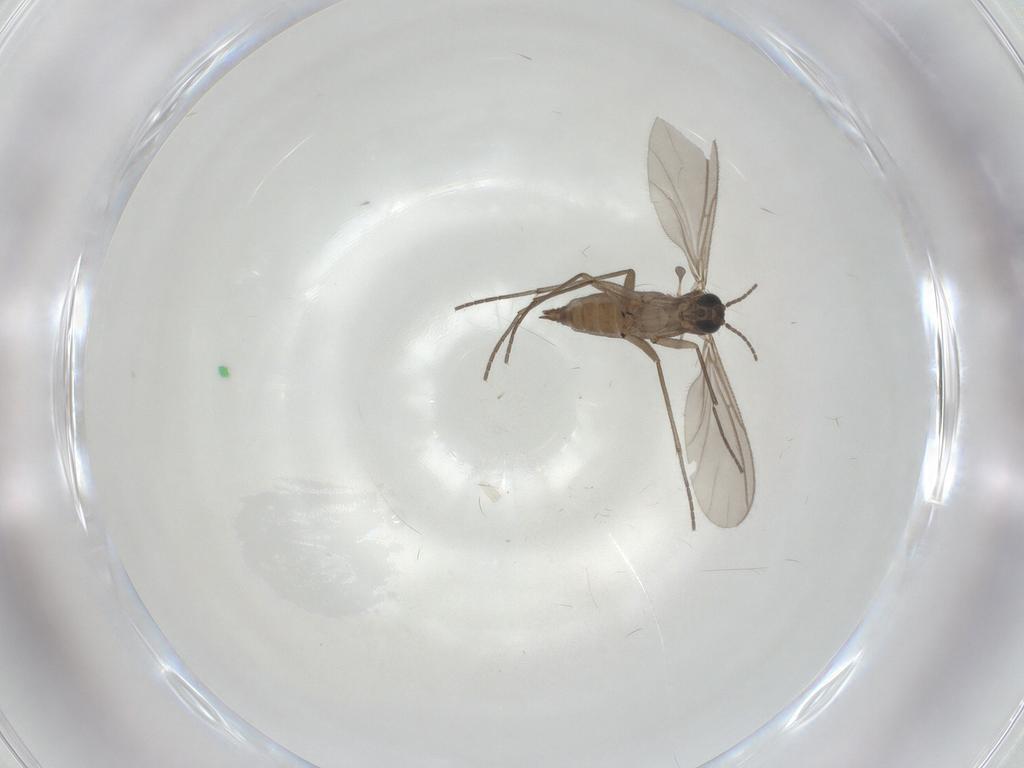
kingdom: Animalia
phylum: Arthropoda
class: Insecta
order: Diptera
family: Sciaridae
